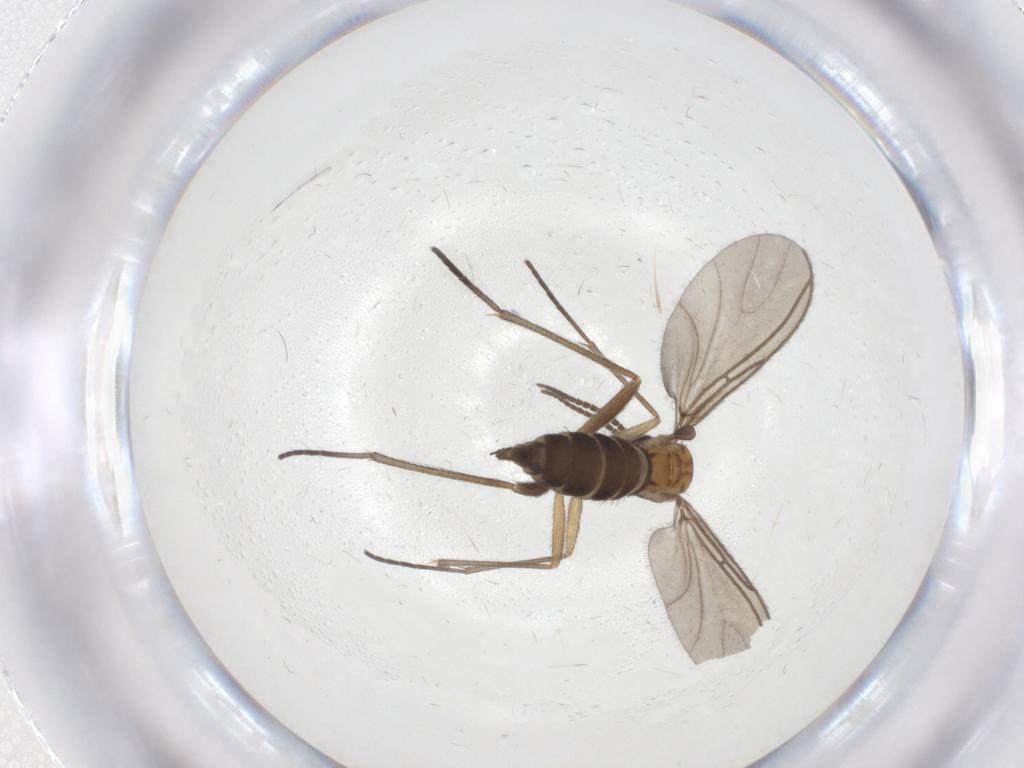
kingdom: Animalia
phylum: Arthropoda
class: Insecta
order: Diptera
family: Sciaridae
